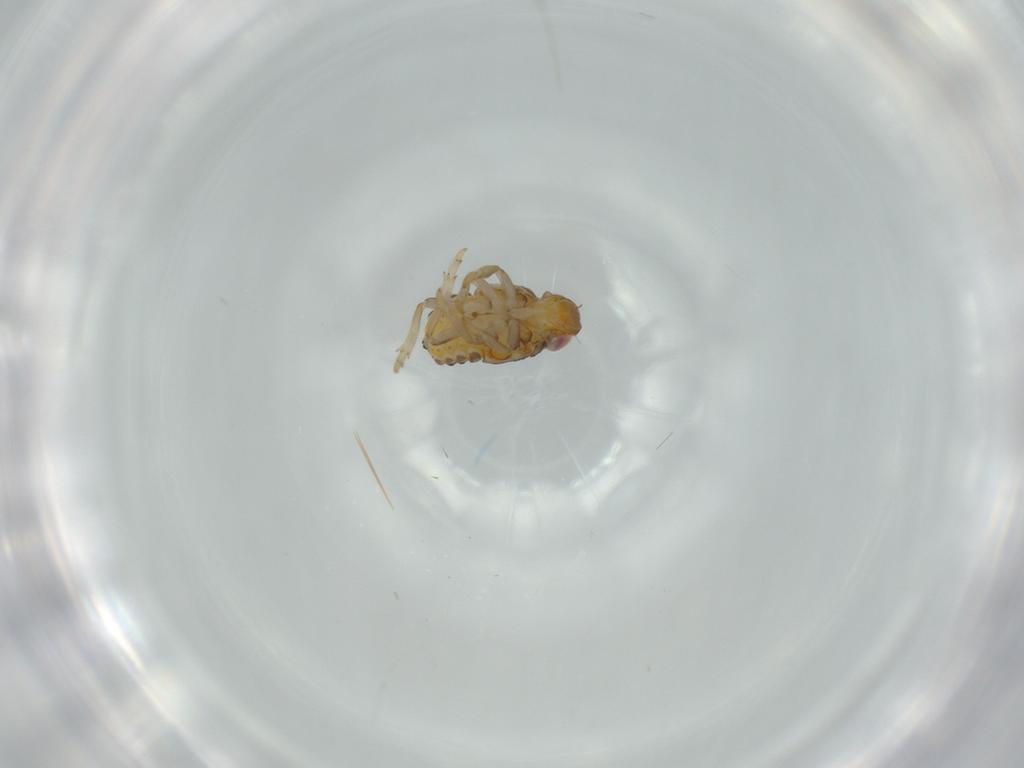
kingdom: Animalia
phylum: Arthropoda
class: Insecta
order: Hemiptera
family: Issidae
